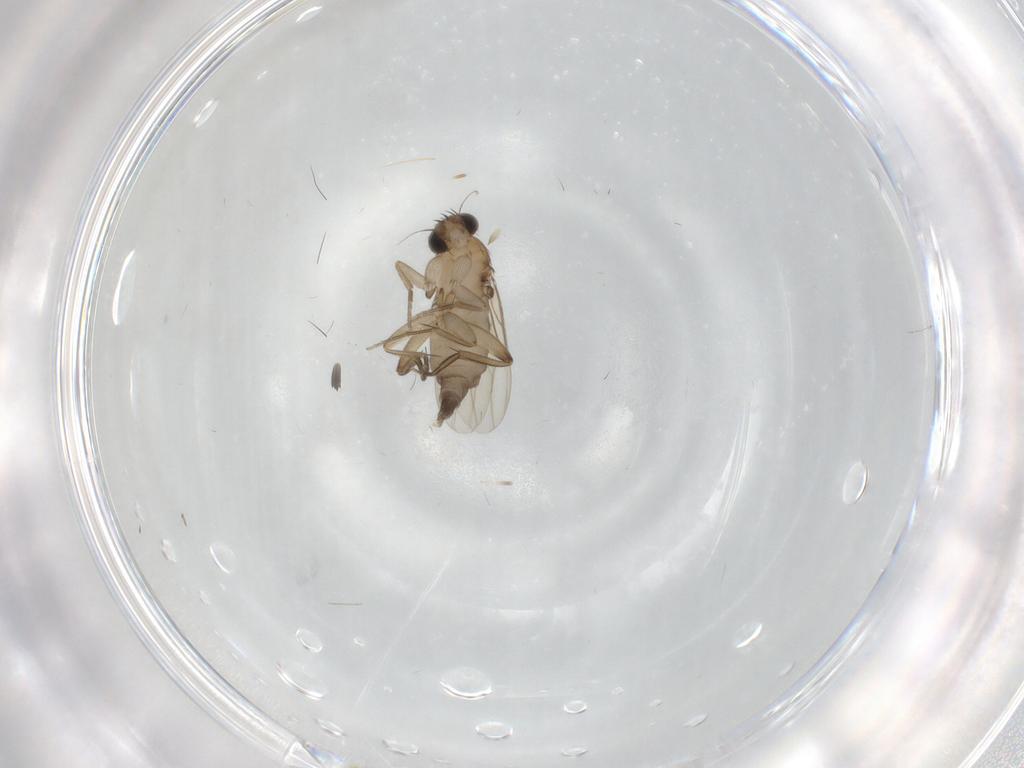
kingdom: Animalia
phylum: Arthropoda
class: Insecta
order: Diptera
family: Phoridae
